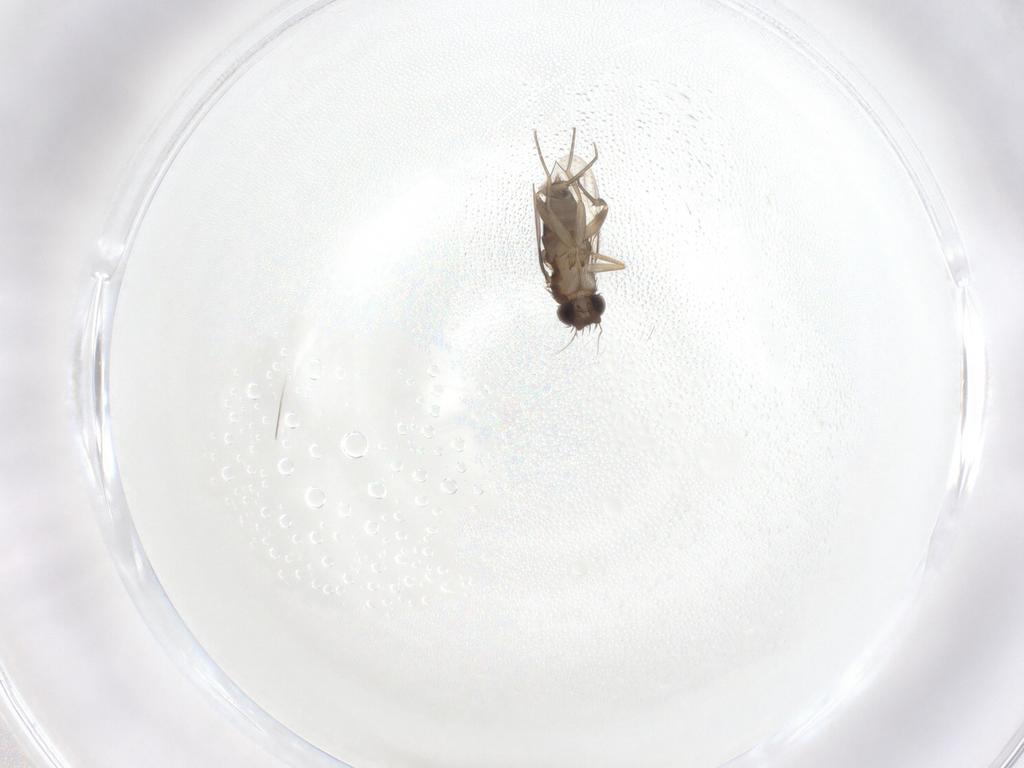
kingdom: Animalia
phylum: Arthropoda
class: Insecta
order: Diptera
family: Phoridae
